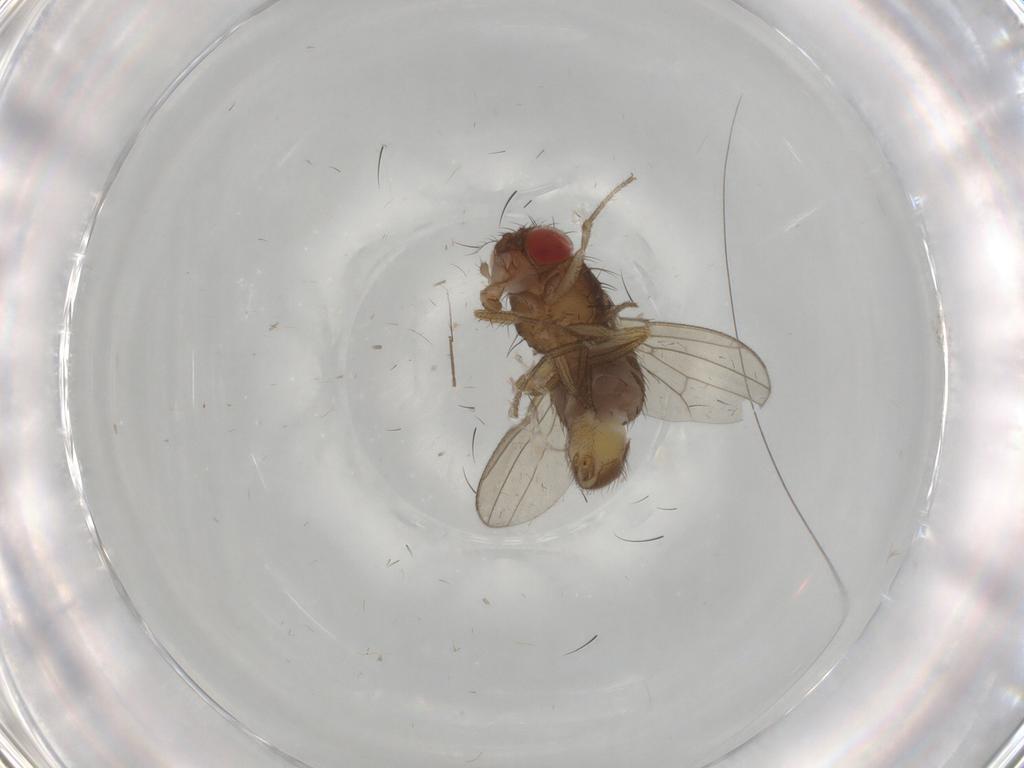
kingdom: Animalia
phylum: Arthropoda
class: Insecta
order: Diptera
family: Drosophilidae
